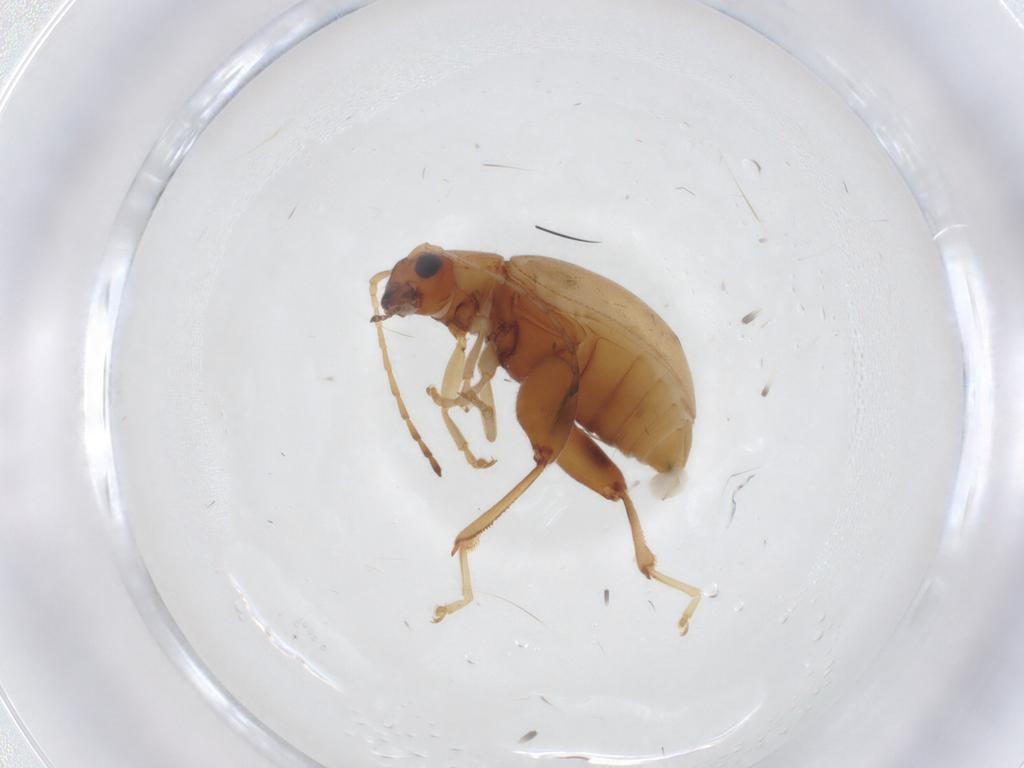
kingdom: Animalia
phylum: Arthropoda
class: Insecta
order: Coleoptera
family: Chrysomelidae
